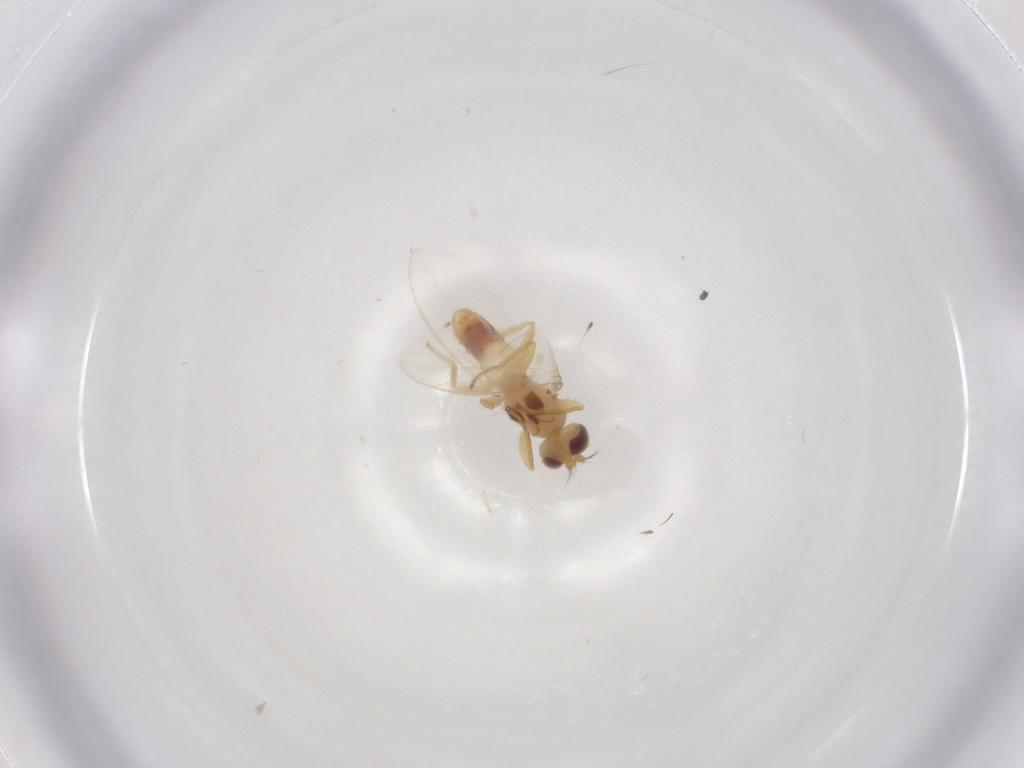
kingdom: Animalia
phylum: Arthropoda
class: Insecta
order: Diptera
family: Periscelididae
